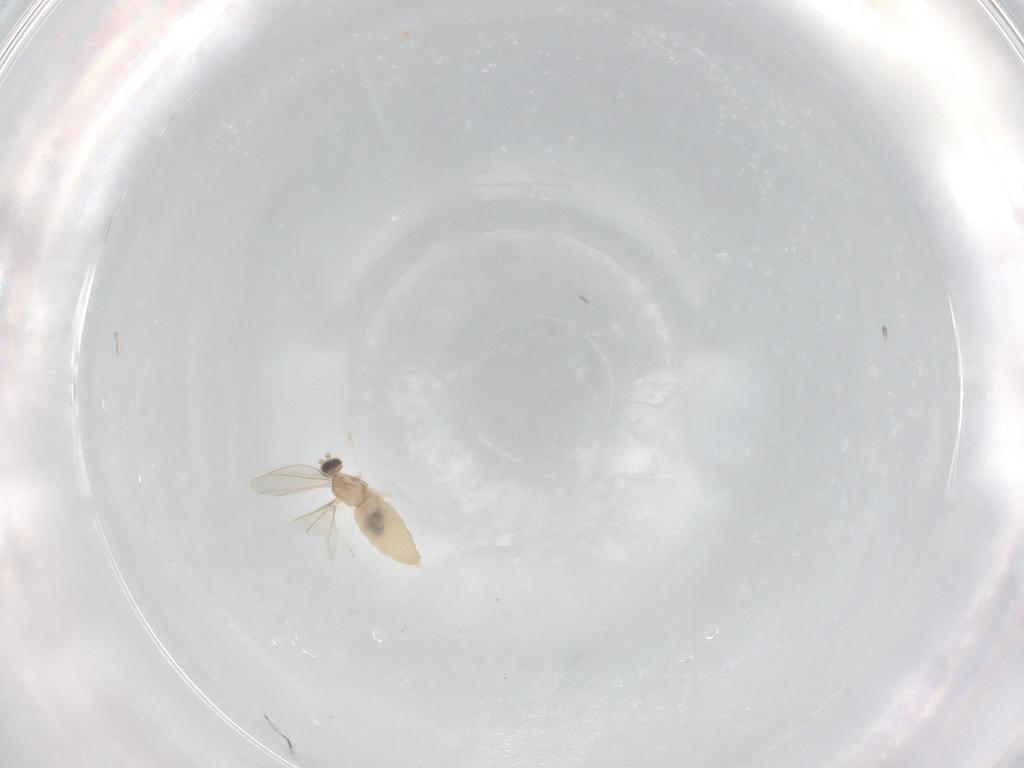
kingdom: Animalia
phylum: Arthropoda
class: Insecta
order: Diptera
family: Cecidomyiidae
